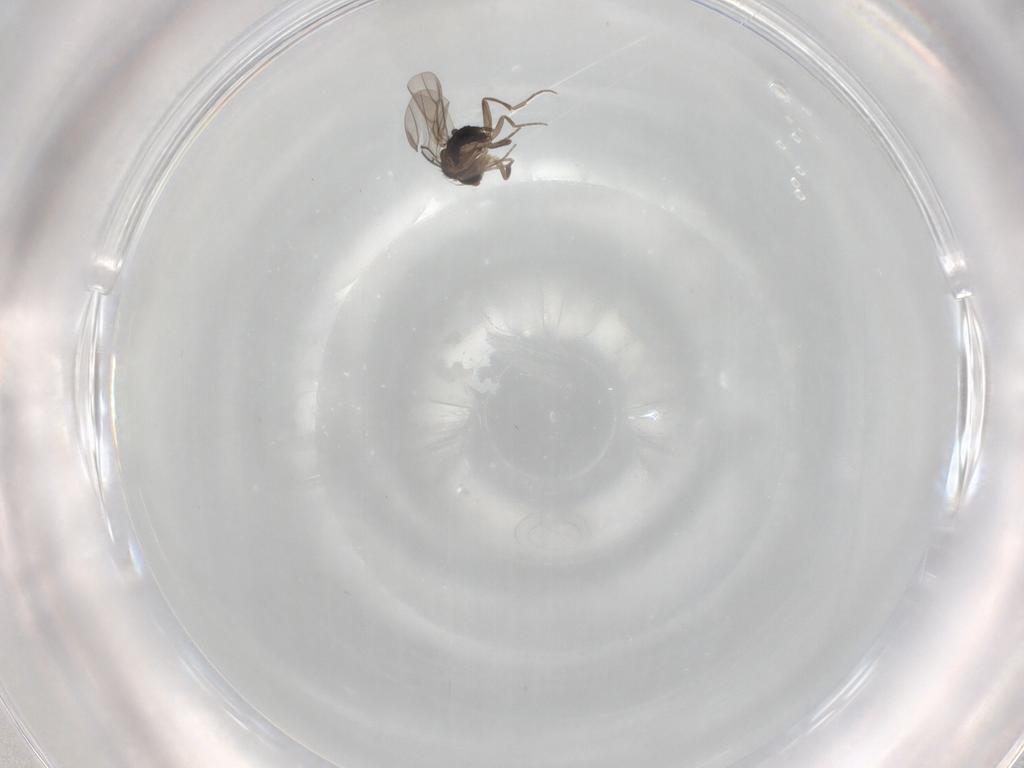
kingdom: Animalia
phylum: Arthropoda
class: Insecta
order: Diptera
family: Phoridae
